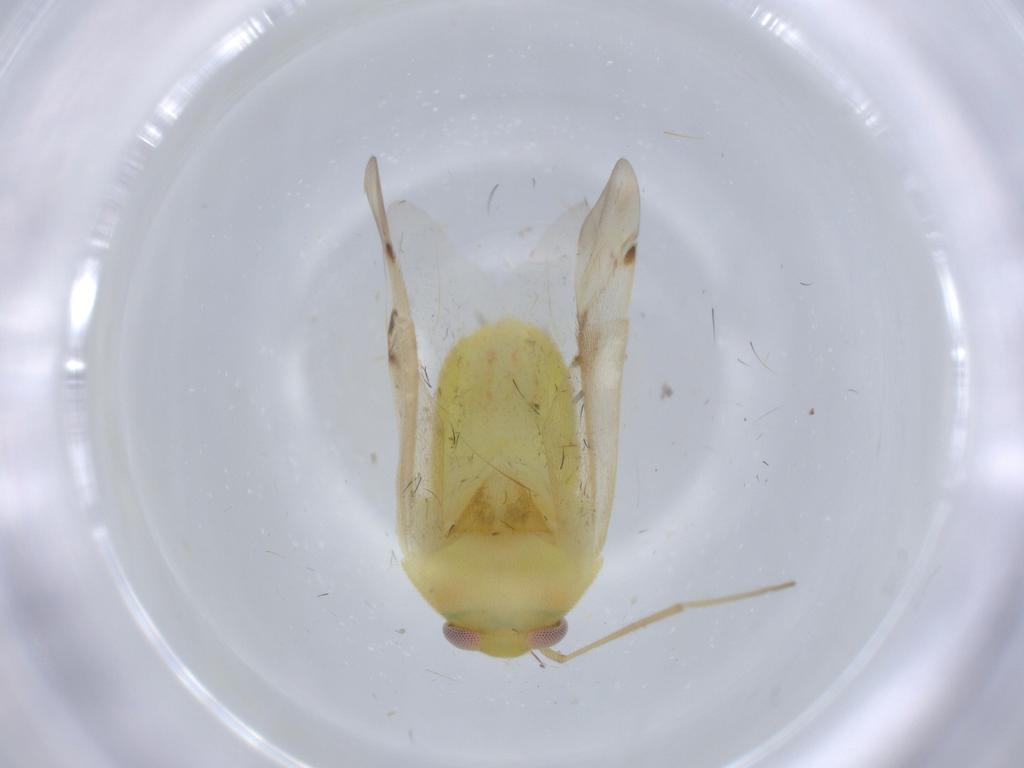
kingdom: Animalia
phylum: Arthropoda
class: Insecta
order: Hemiptera
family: Miridae
